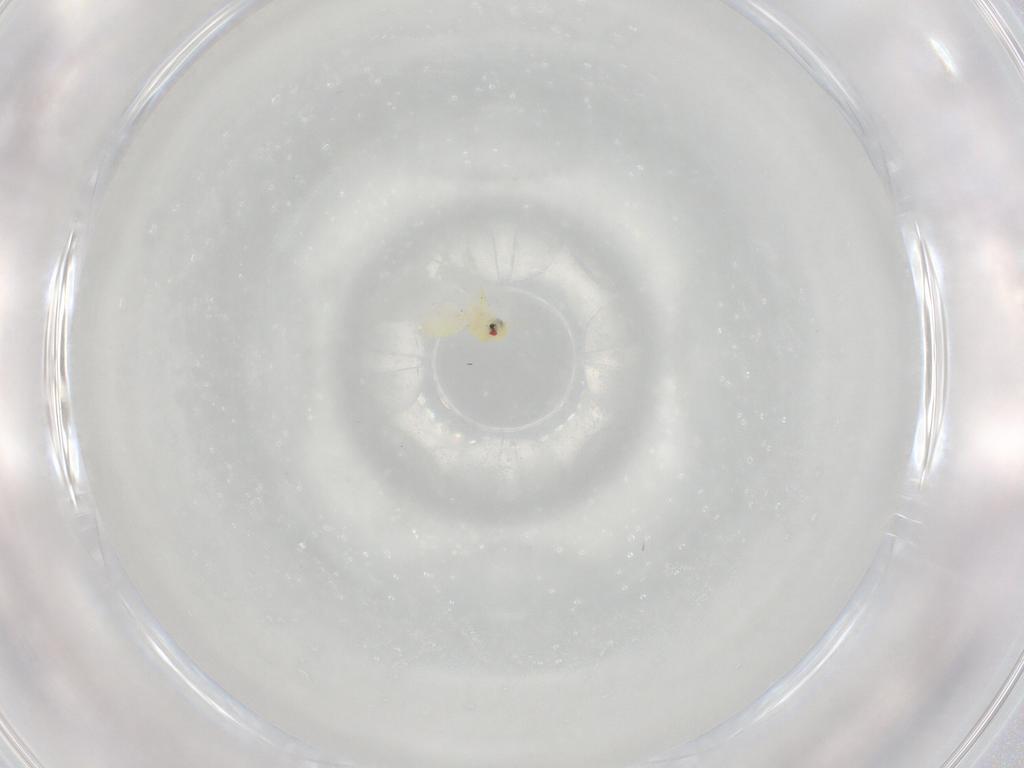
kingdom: Animalia
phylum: Arthropoda
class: Insecta
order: Hemiptera
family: Aleyrodidae
